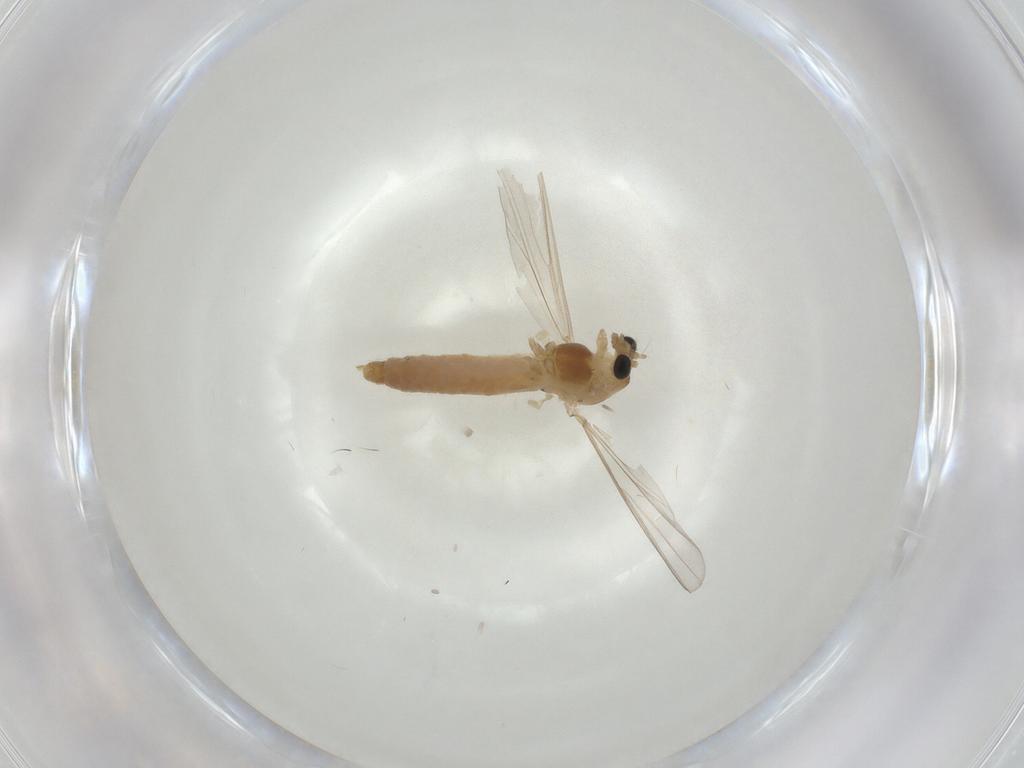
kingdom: Animalia
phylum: Arthropoda
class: Insecta
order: Diptera
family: Chironomidae
